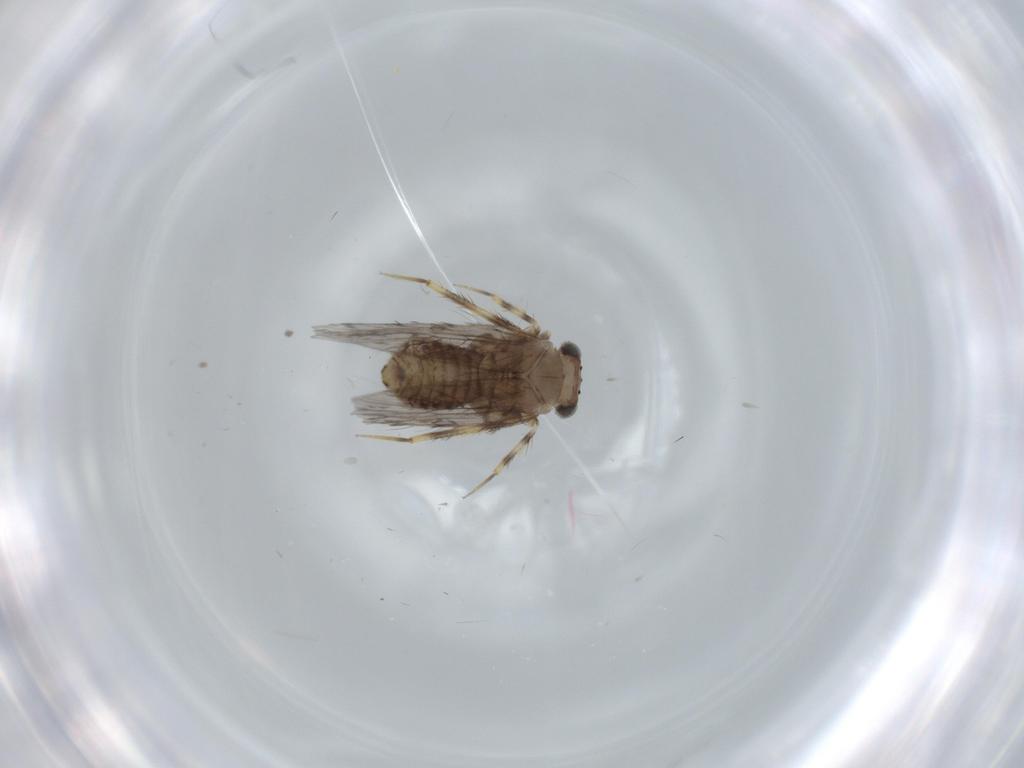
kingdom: Animalia
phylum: Arthropoda
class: Insecta
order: Psocodea
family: Lepidopsocidae
